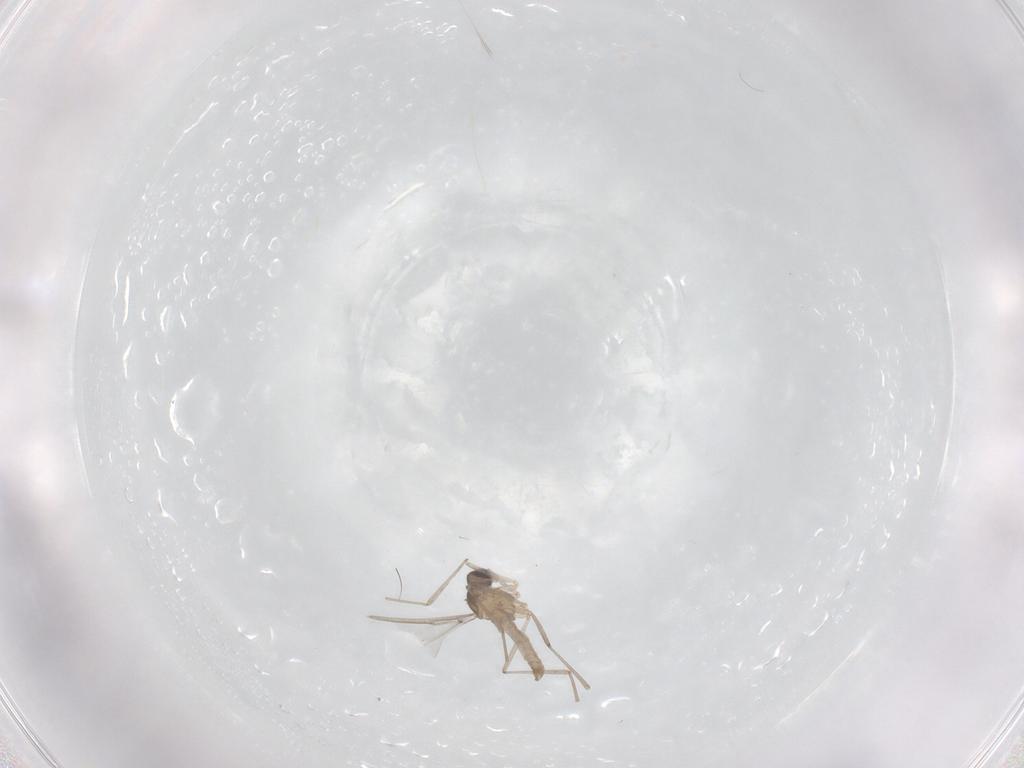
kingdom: Animalia
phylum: Arthropoda
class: Insecta
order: Diptera
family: Cecidomyiidae
